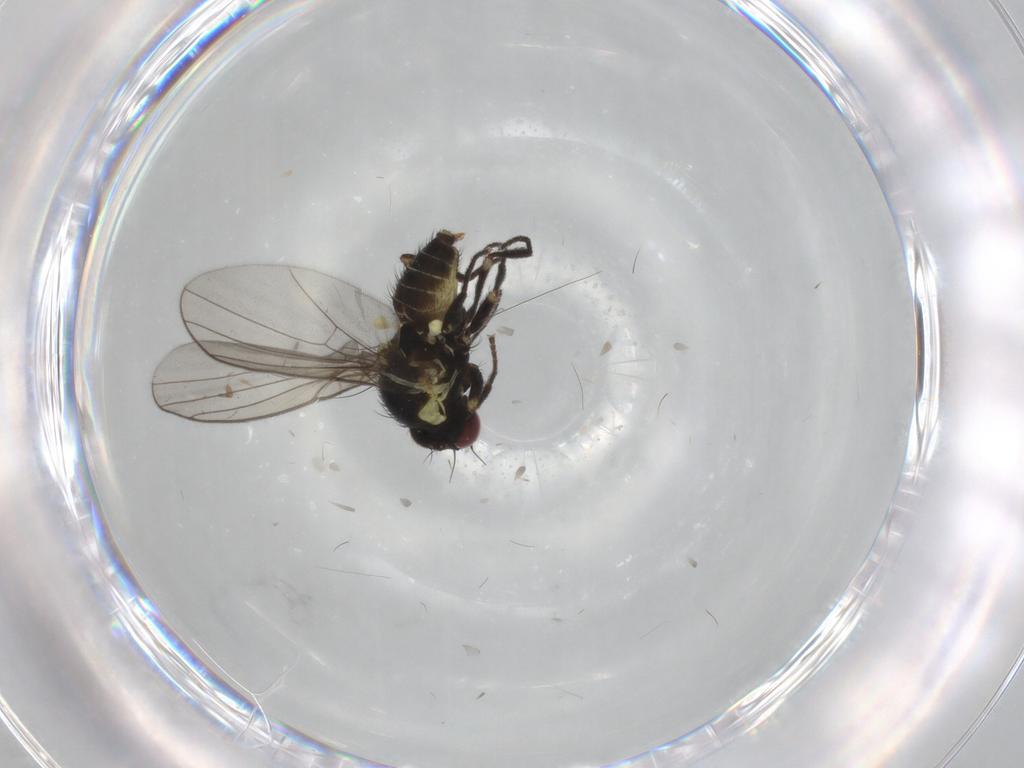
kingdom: Animalia
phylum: Arthropoda
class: Insecta
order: Diptera
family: Agromyzidae
